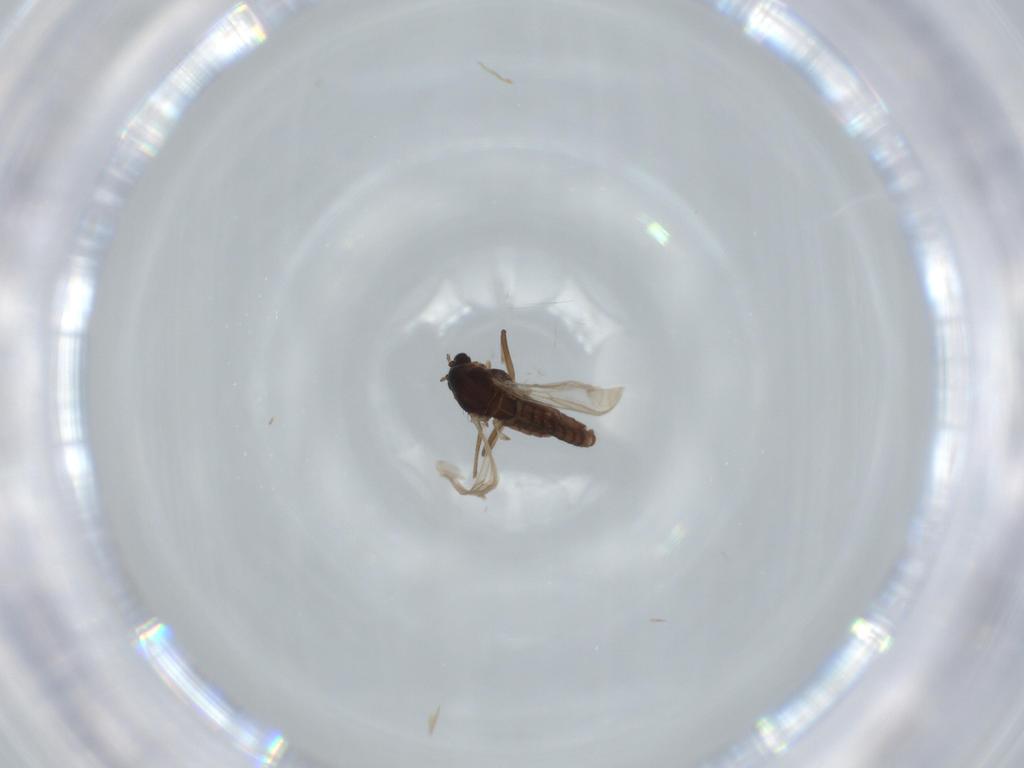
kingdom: Animalia
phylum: Arthropoda
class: Insecta
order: Diptera
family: Anthomyiidae
